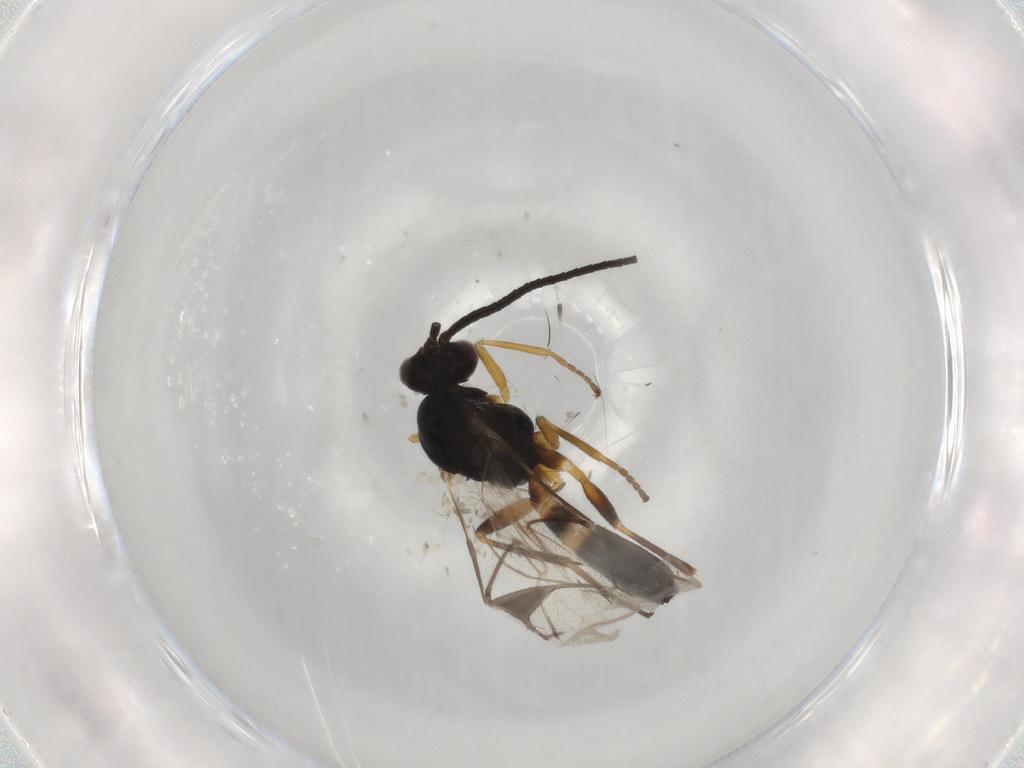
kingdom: Animalia
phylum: Arthropoda
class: Insecta
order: Hymenoptera
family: Braconidae
